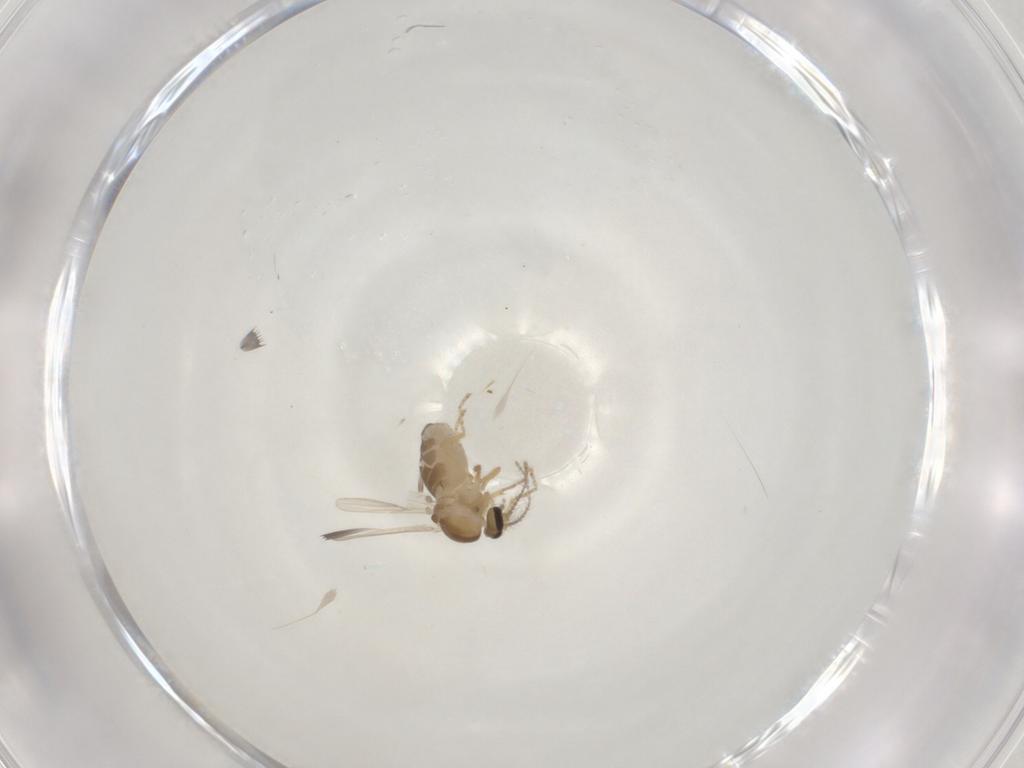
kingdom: Animalia
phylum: Arthropoda
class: Insecta
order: Diptera
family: Ceratopogonidae
